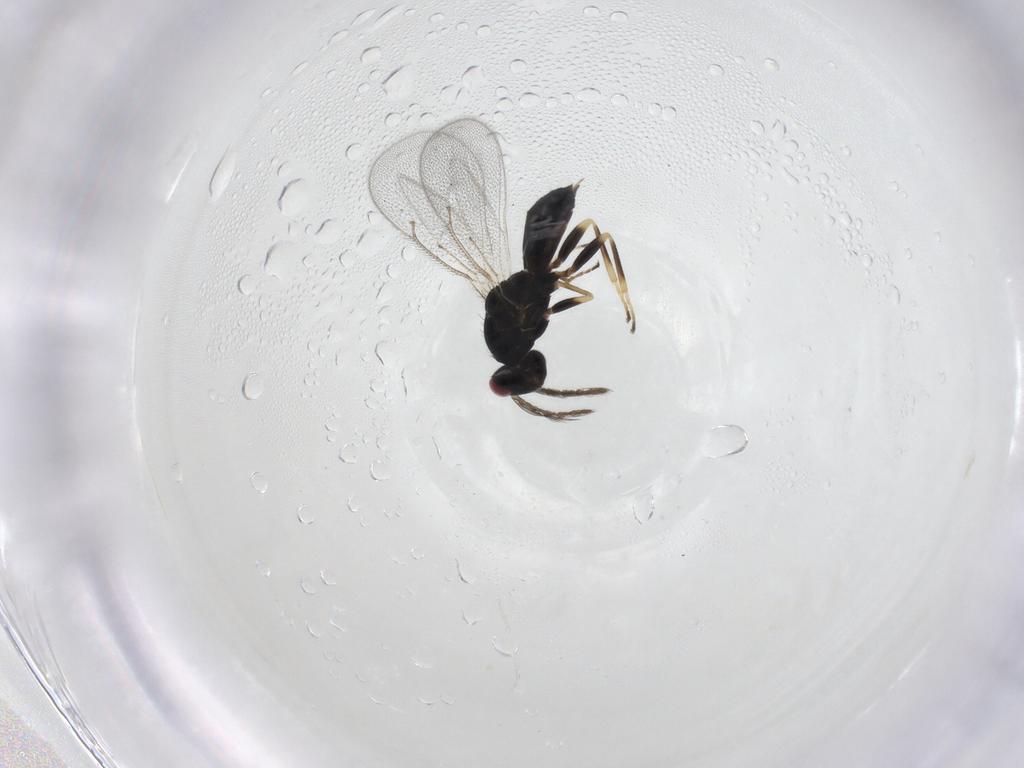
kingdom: Animalia
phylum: Arthropoda
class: Insecta
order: Hymenoptera
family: Eulophidae
